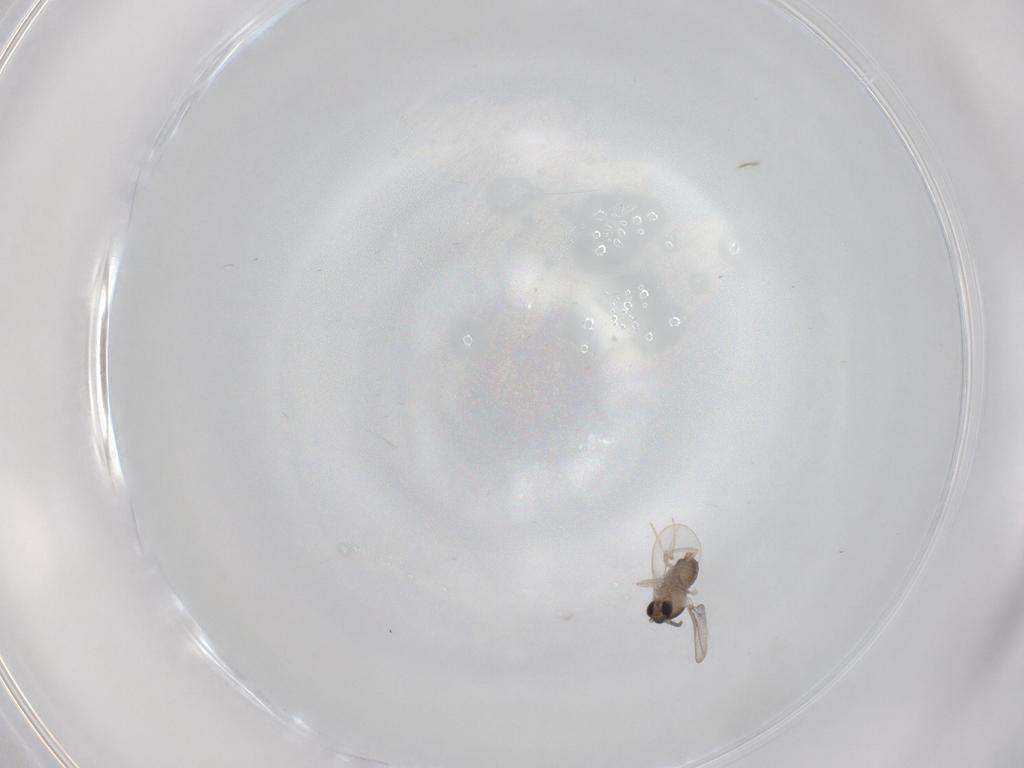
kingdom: Animalia
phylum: Arthropoda
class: Insecta
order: Diptera
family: Cecidomyiidae
